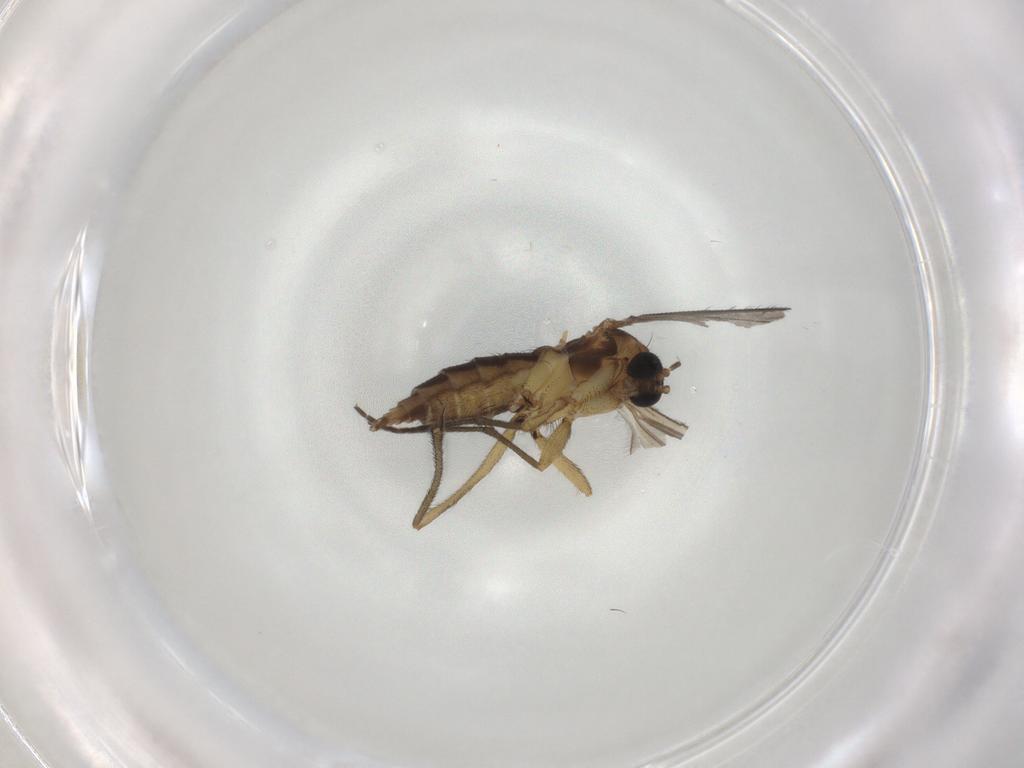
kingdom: Animalia
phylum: Arthropoda
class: Insecta
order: Diptera
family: Sciaridae
